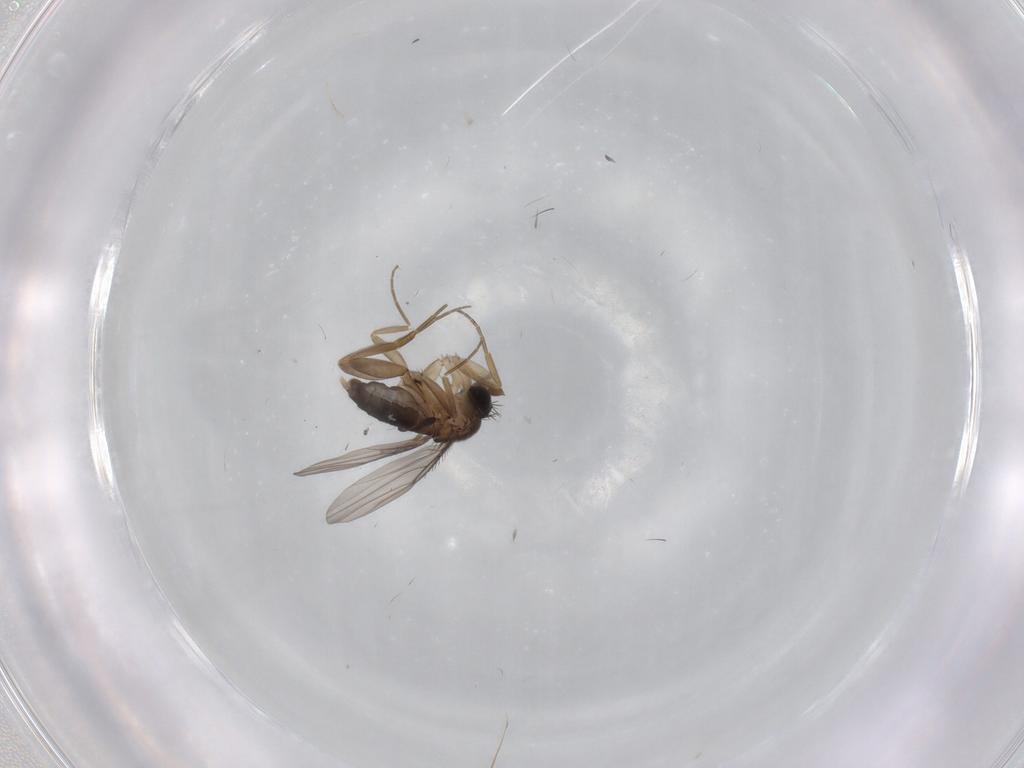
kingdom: Animalia
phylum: Arthropoda
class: Insecta
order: Diptera
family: Phoridae
